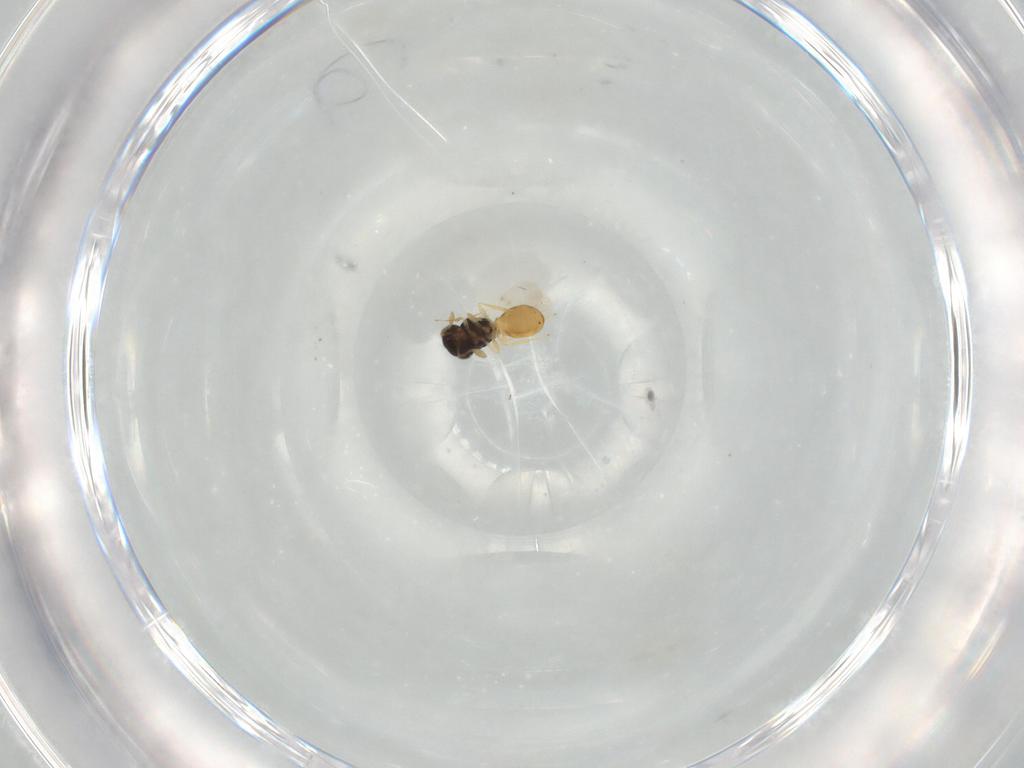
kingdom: Animalia
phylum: Arthropoda
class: Insecta
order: Hymenoptera
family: Scelionidae
